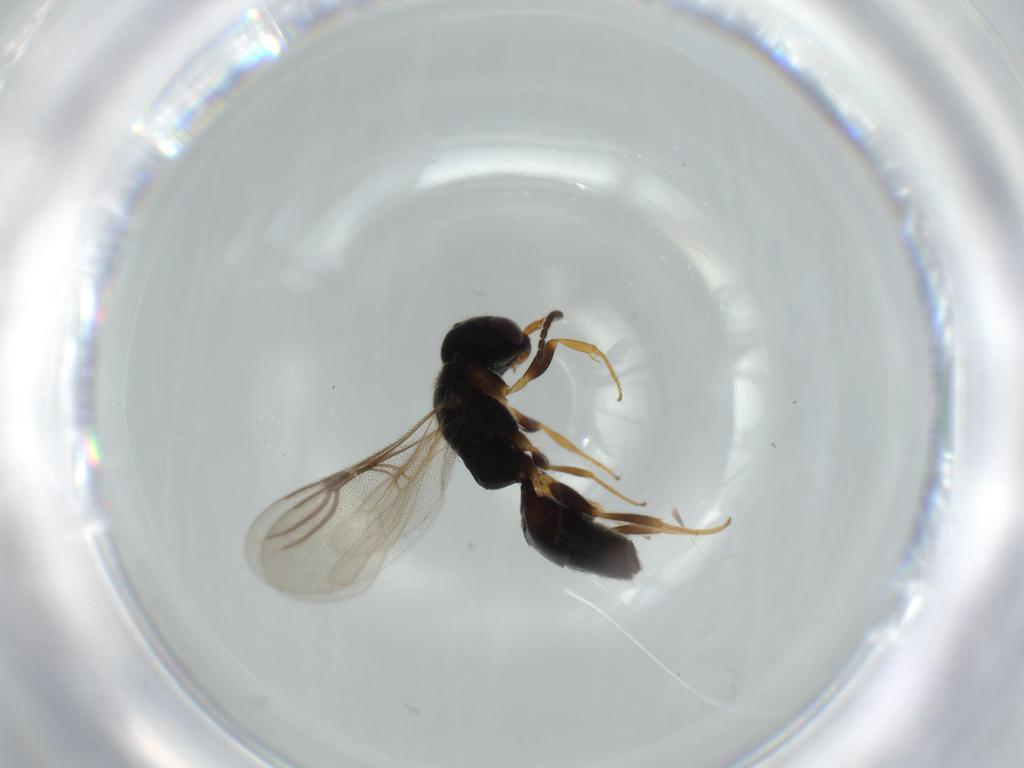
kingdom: Animalia
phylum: Arthropoda
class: Insecta
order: Hymenoptera
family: Bethylidae
